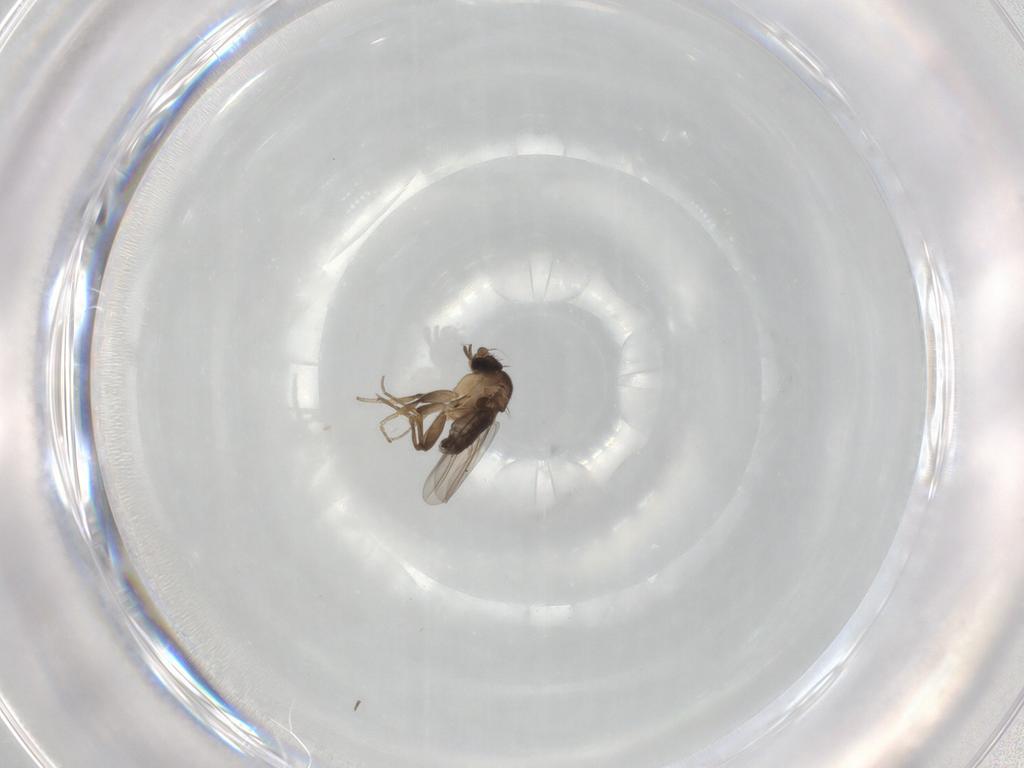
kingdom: Animalia
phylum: Arthropoda
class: Insecta
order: Diptera
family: Phoridae
